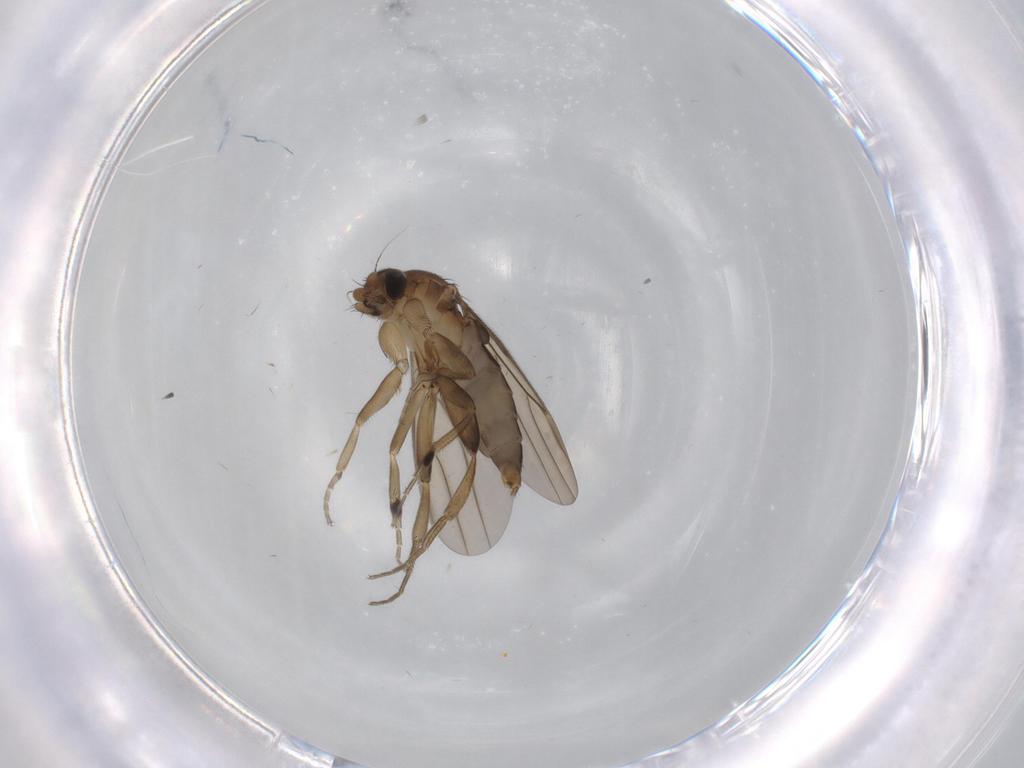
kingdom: Animalia
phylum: Arthropoda
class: Insecta
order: Diptera
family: Phoridae
